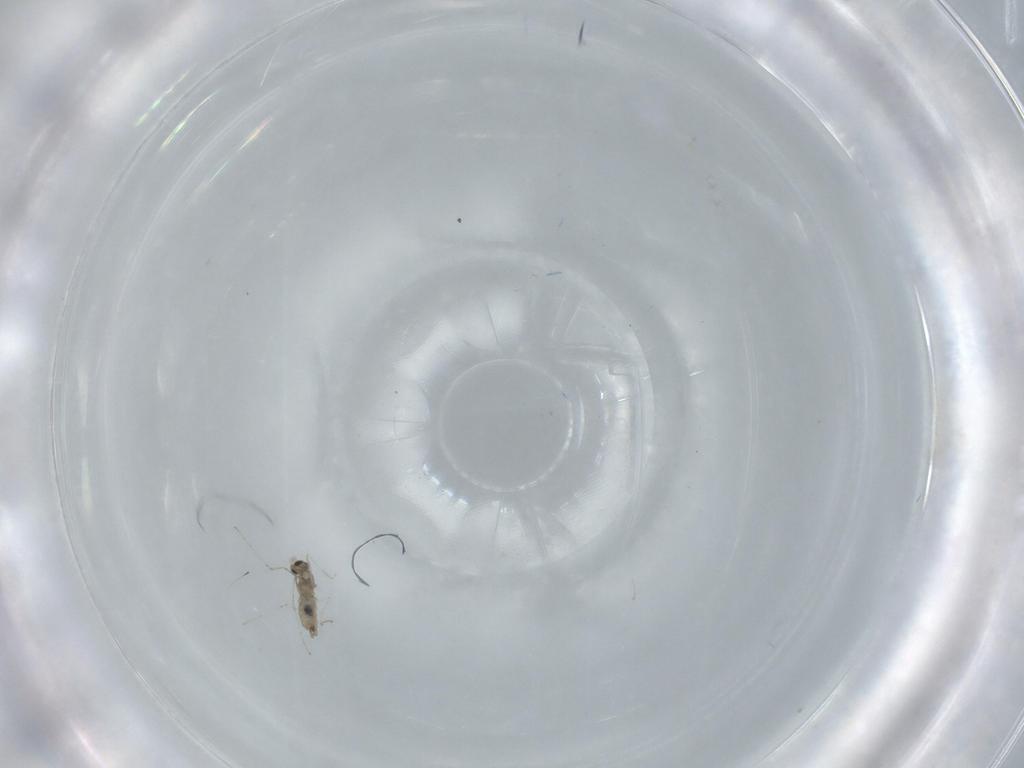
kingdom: Animalia
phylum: Arthropoda
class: Insecta
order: Diptera
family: Cecidomyiidae
